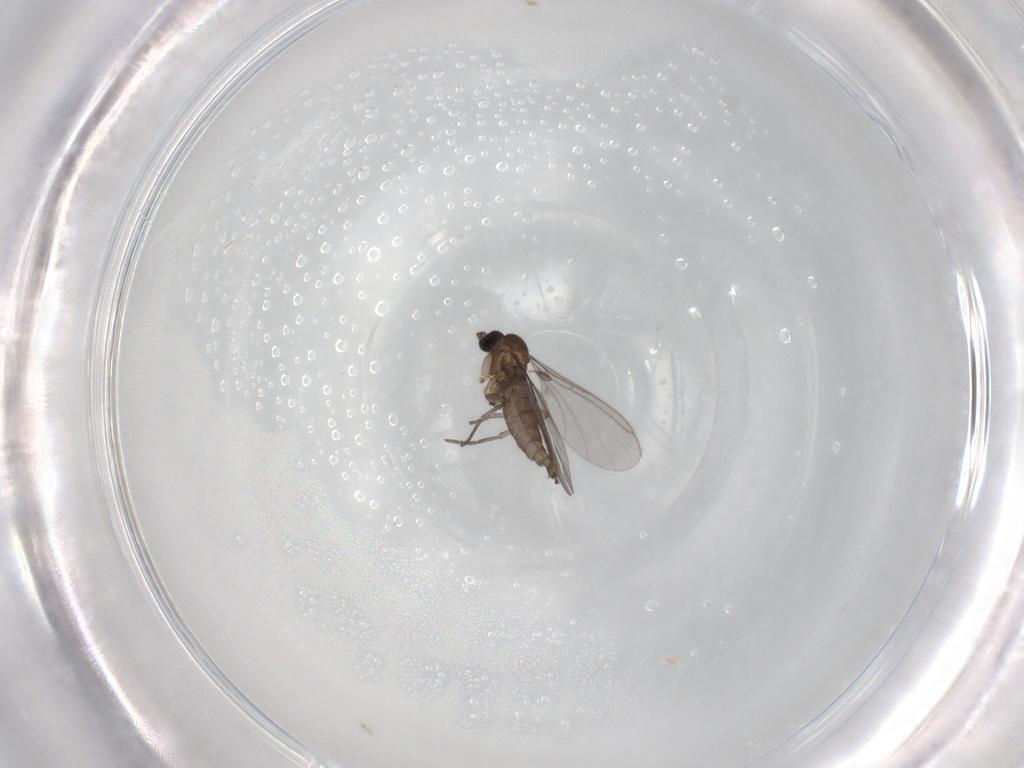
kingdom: Animalia
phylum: Arthropoda
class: Insecta
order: Diptera
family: Sciaridae
